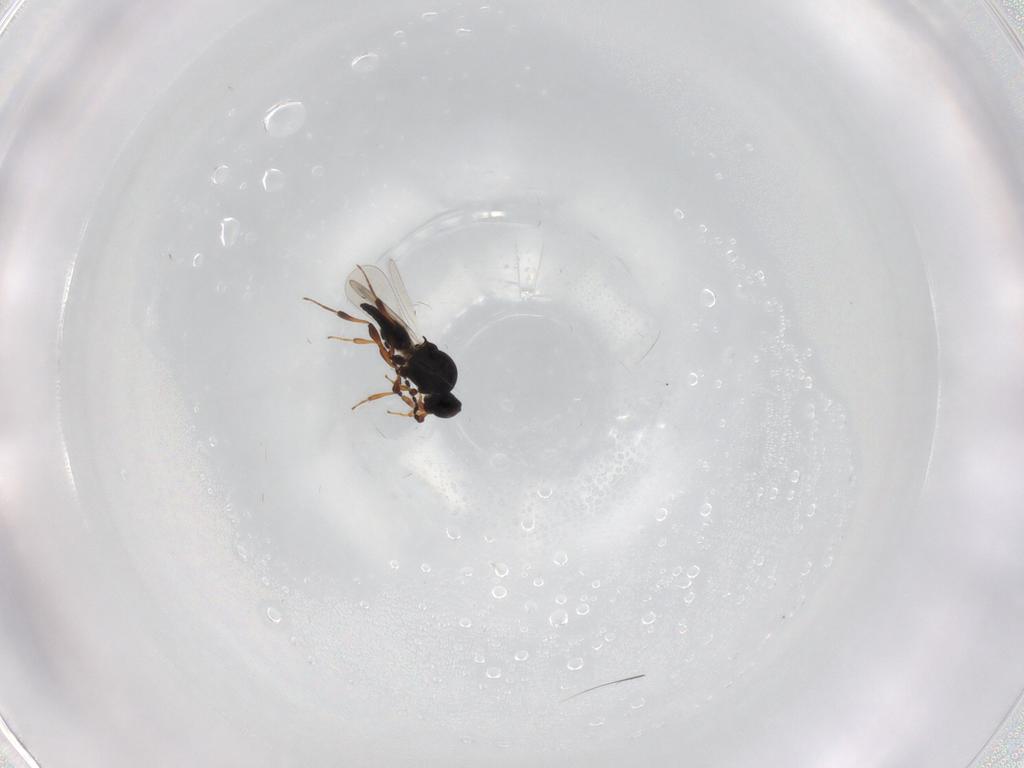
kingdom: Animalia
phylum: Arthropoda
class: Insecta
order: Hymenoptera
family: Platygastridae
